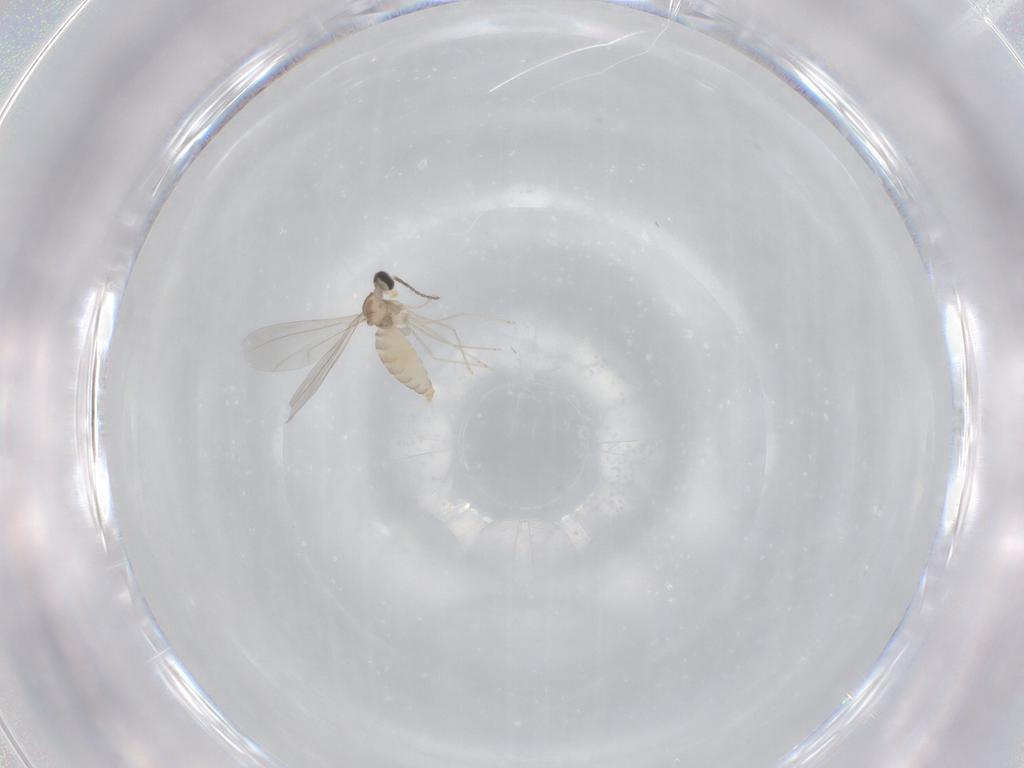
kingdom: Animalia
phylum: Arthropoda
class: Insecta
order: Diptera
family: Cecidomyiidae
